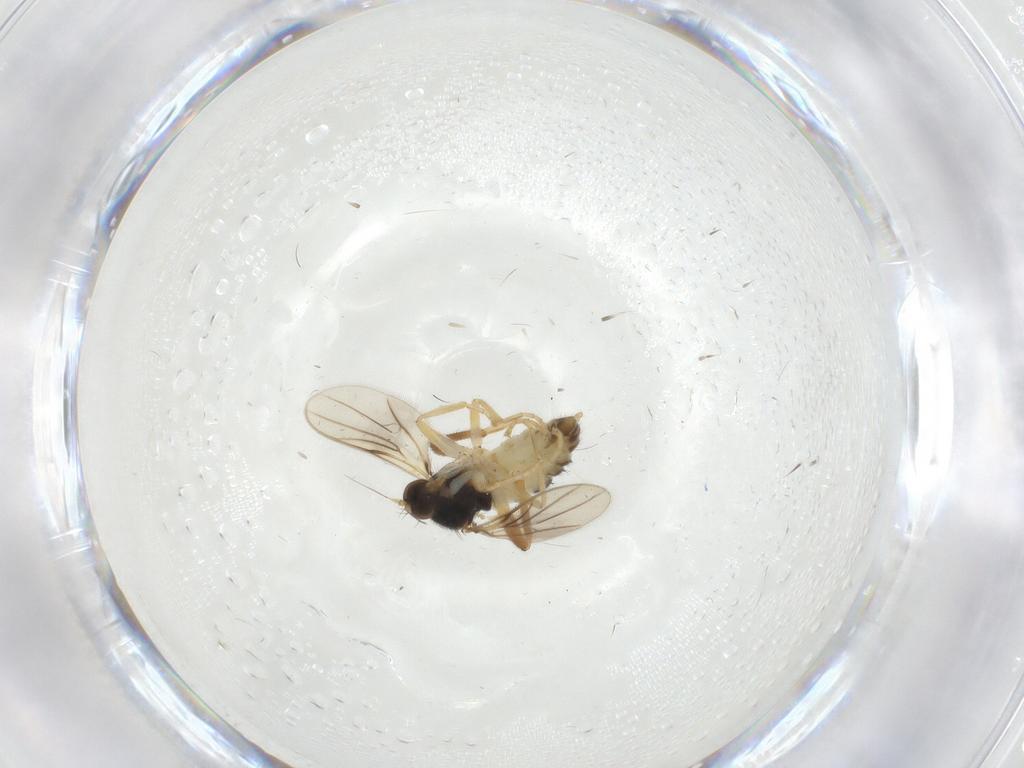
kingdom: Animalia
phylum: Arthropoda
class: Insecta
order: Diptera
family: Hybotidae
